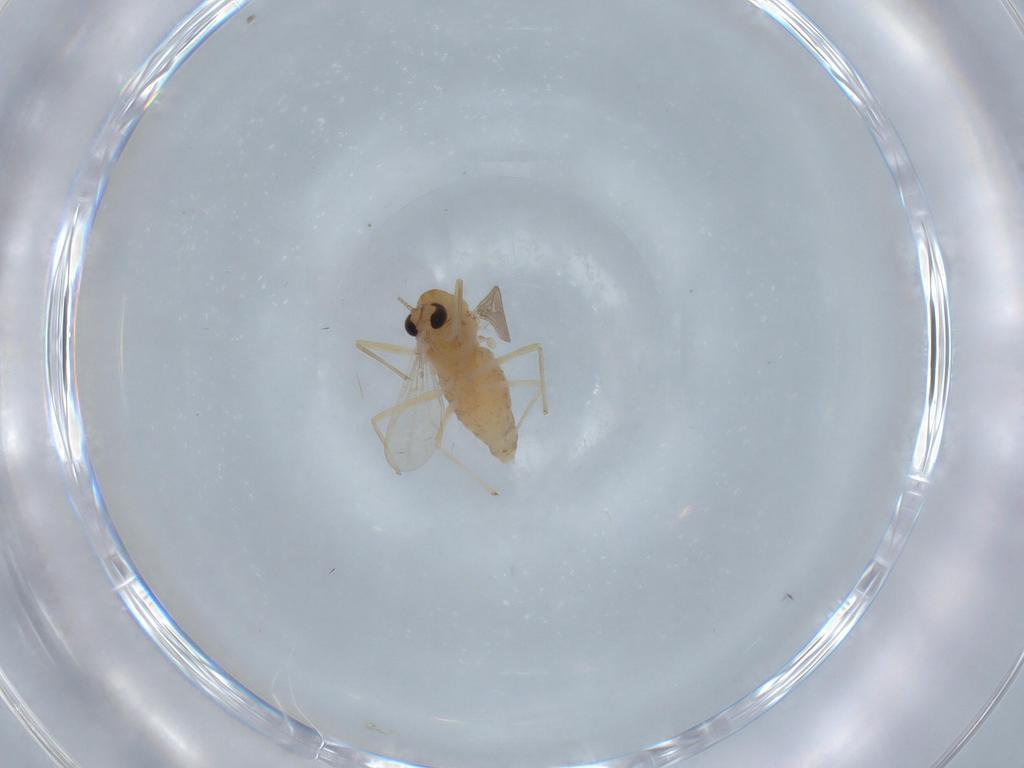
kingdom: Animalia
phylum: Arthropoda
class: Insecta
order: Diptera
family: Chironomidae
